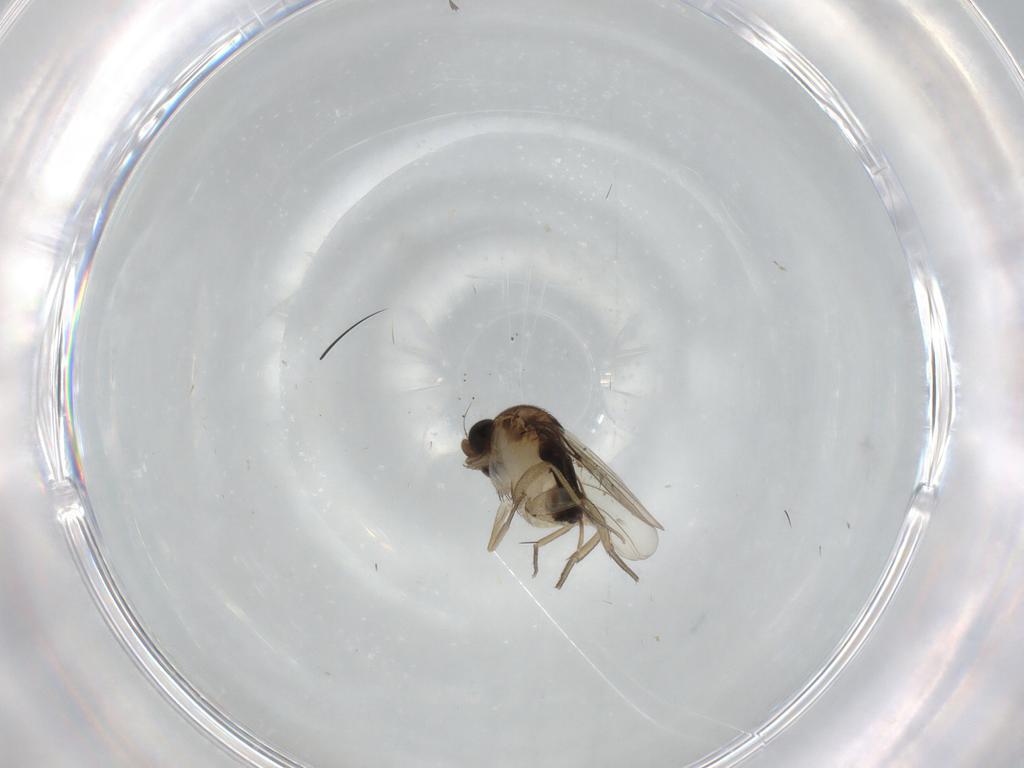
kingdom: Animalia
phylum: Arthropoda
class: Insecta
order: Diptera
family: Phoridae
